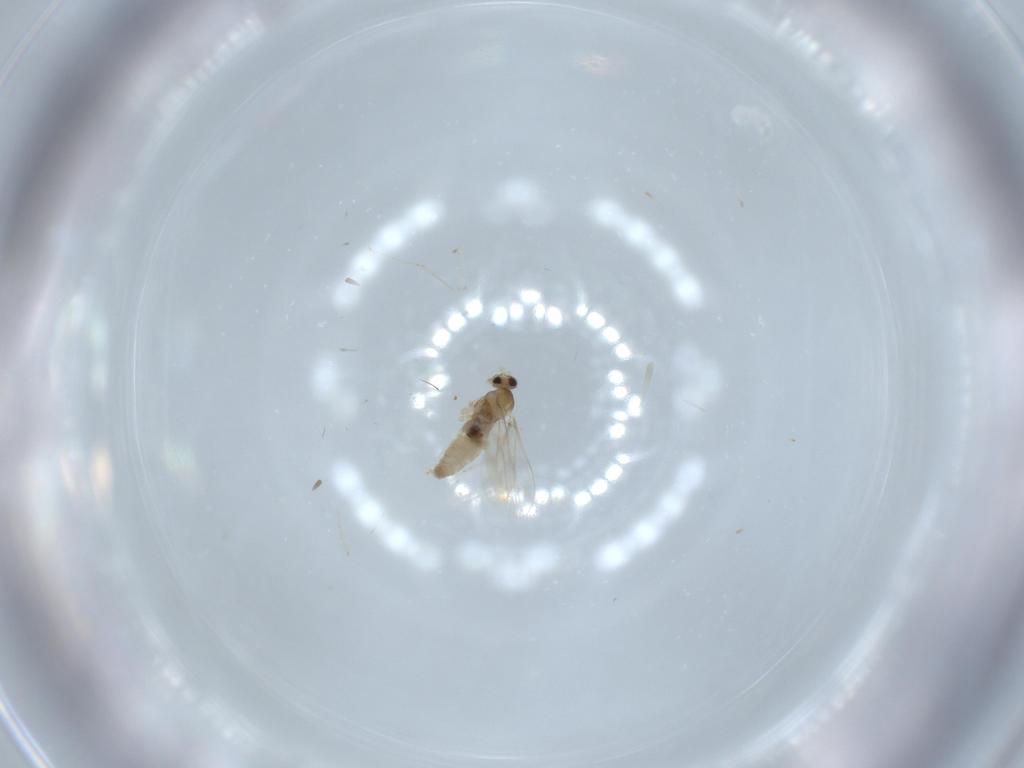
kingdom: Animalia
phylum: Arthropoda
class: Insecta
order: Diptera
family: Cecidomyiidae
